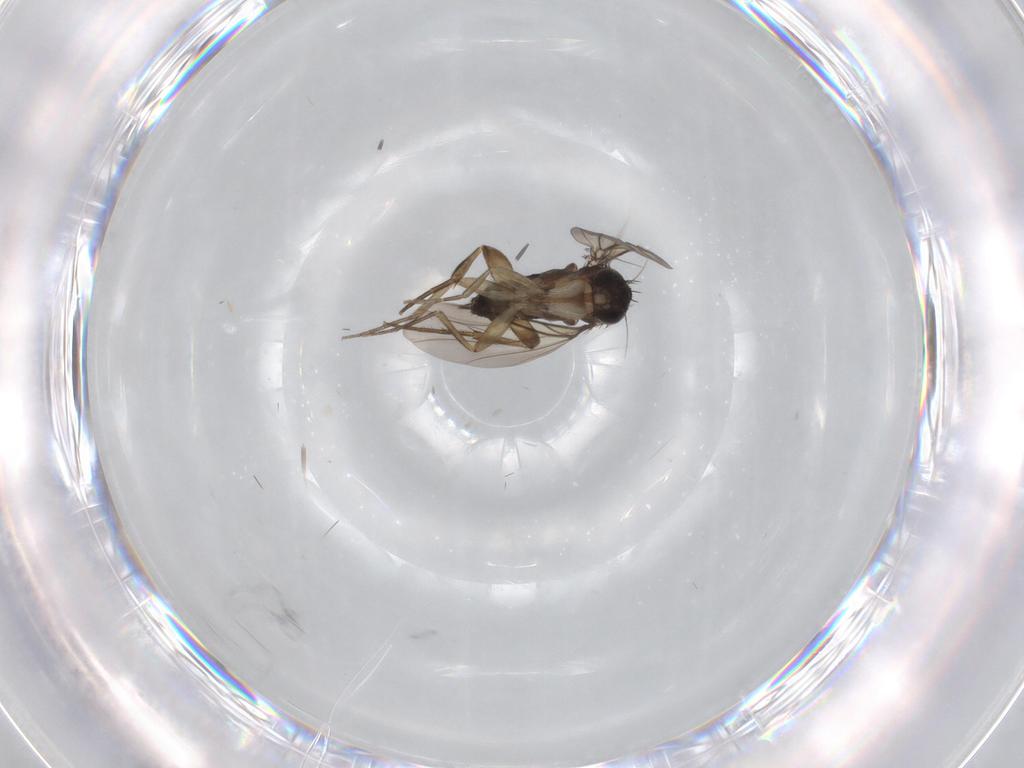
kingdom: Animalia
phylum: Arthropoda
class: Insecta
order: Diptera
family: Phoridae
